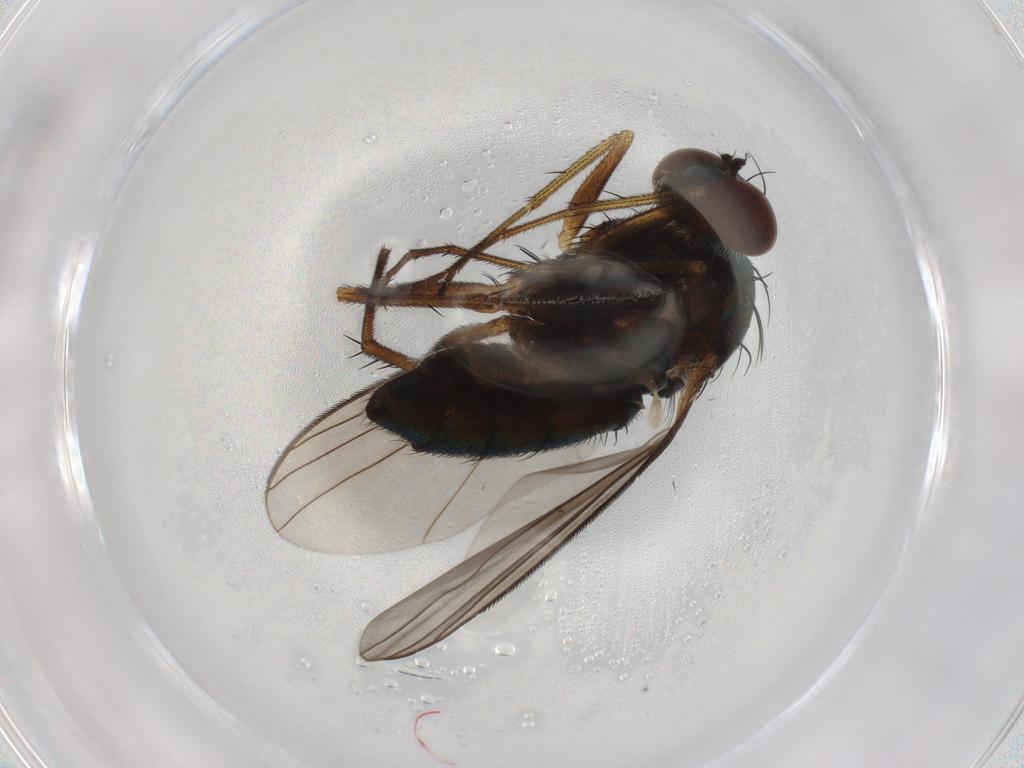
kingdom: Animalia
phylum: Arthropoda
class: Insecta
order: Diptera
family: Dolichopodidae
